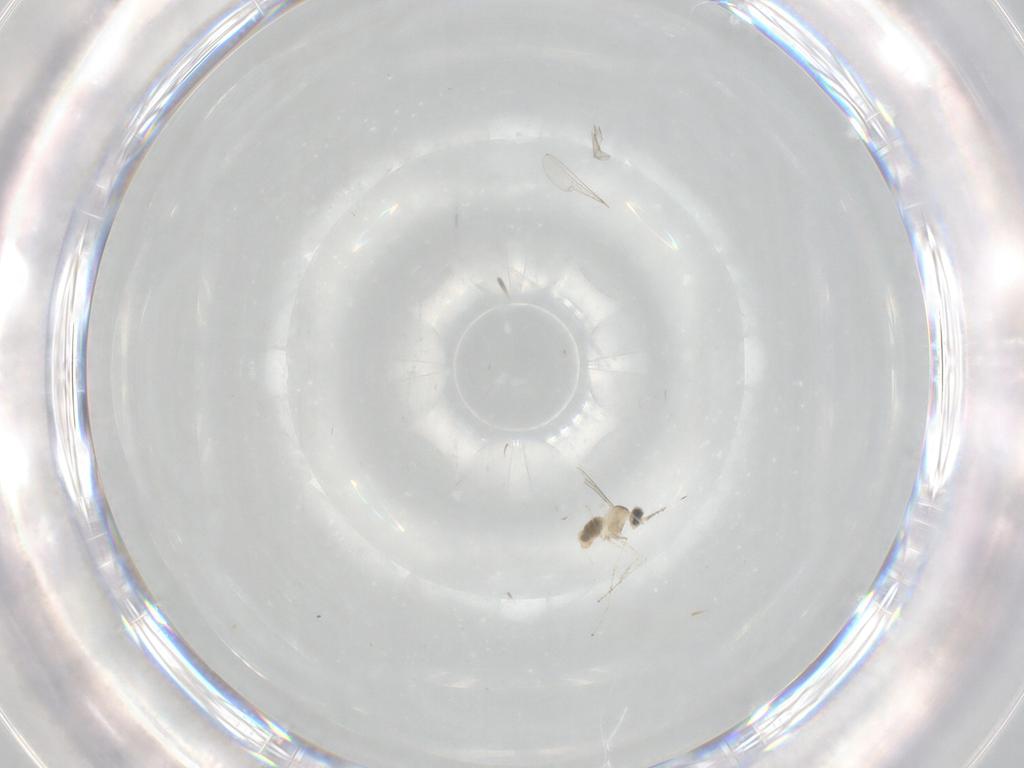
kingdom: Animalia
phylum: Arthropoda
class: Insecta
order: Diptera
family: Cecidomyiidae
